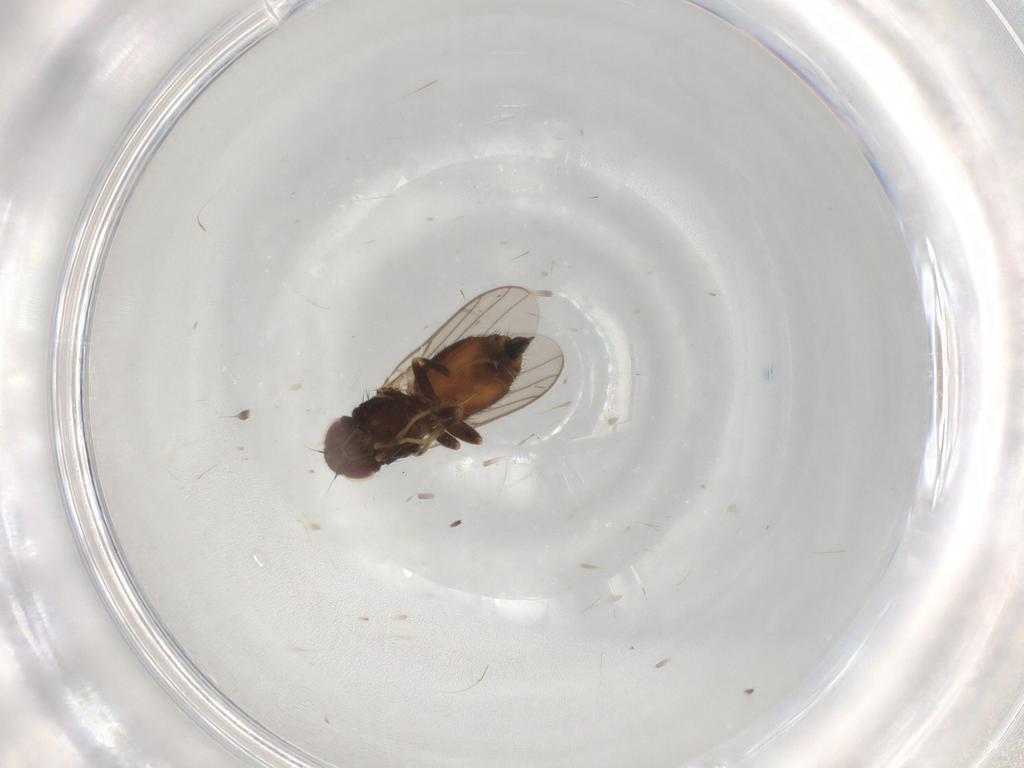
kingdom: Animalia
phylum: Arthropoda
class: Insecta
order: Diptera
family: Chloropidae
